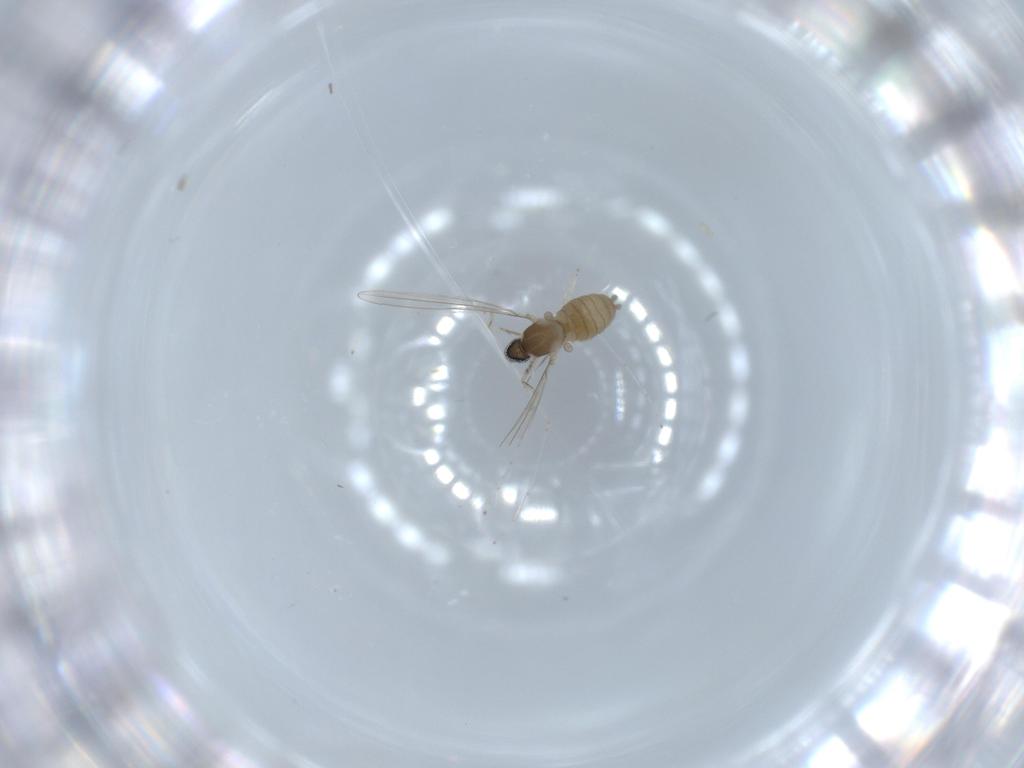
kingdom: Animalia
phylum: Arthropoda
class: Insecta
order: Diptera
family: Cecidomyiidae
